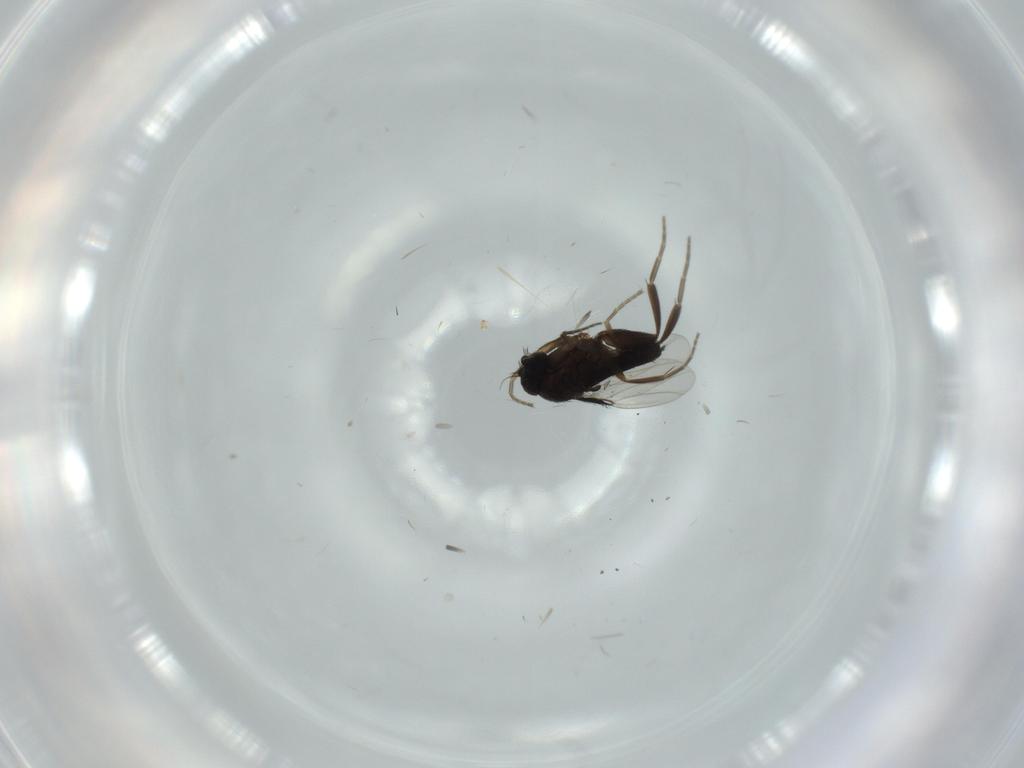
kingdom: Animalia
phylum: Arthropoda
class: Insecta
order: Diptera
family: Phoridae
